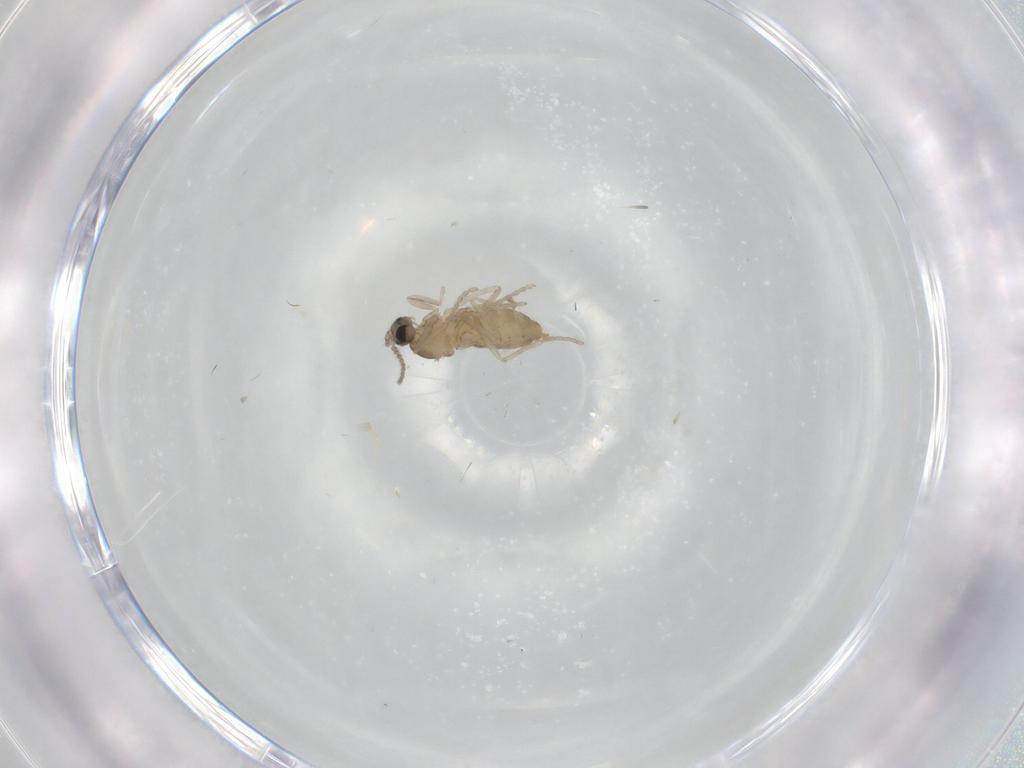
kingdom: Animalia
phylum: Arthropoda
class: Insecta
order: Diptera
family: Cecidomyiidae
